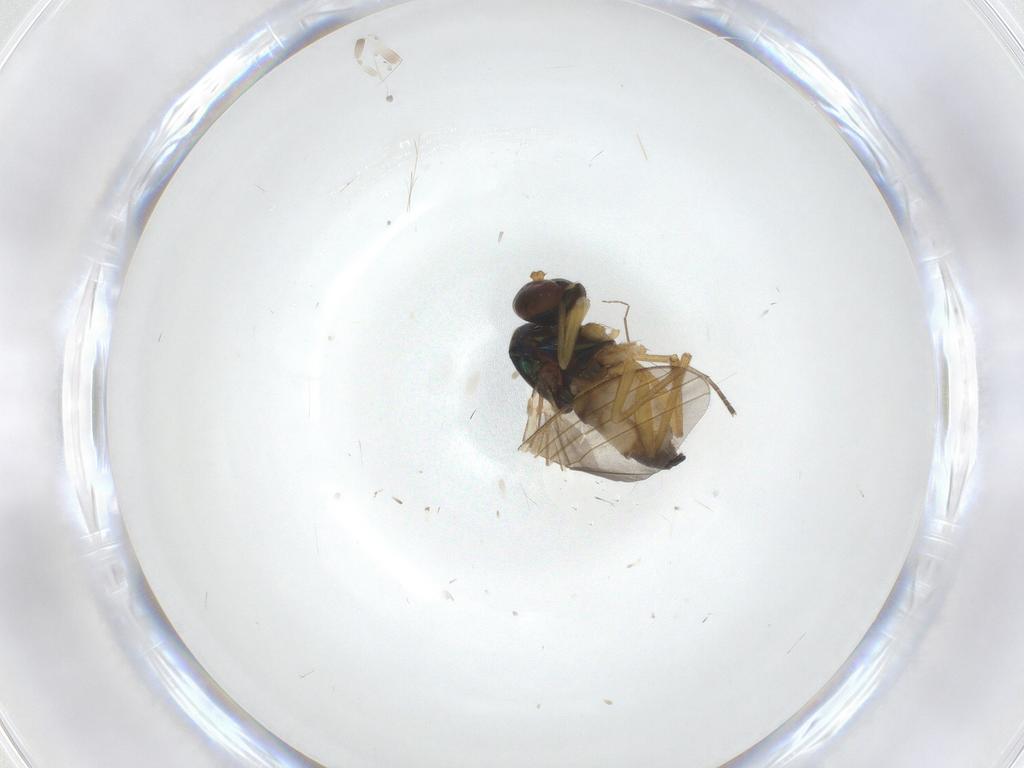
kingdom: Animalia
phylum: Arthropoda
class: Insecta
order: Diptera
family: Dolichopodidae
